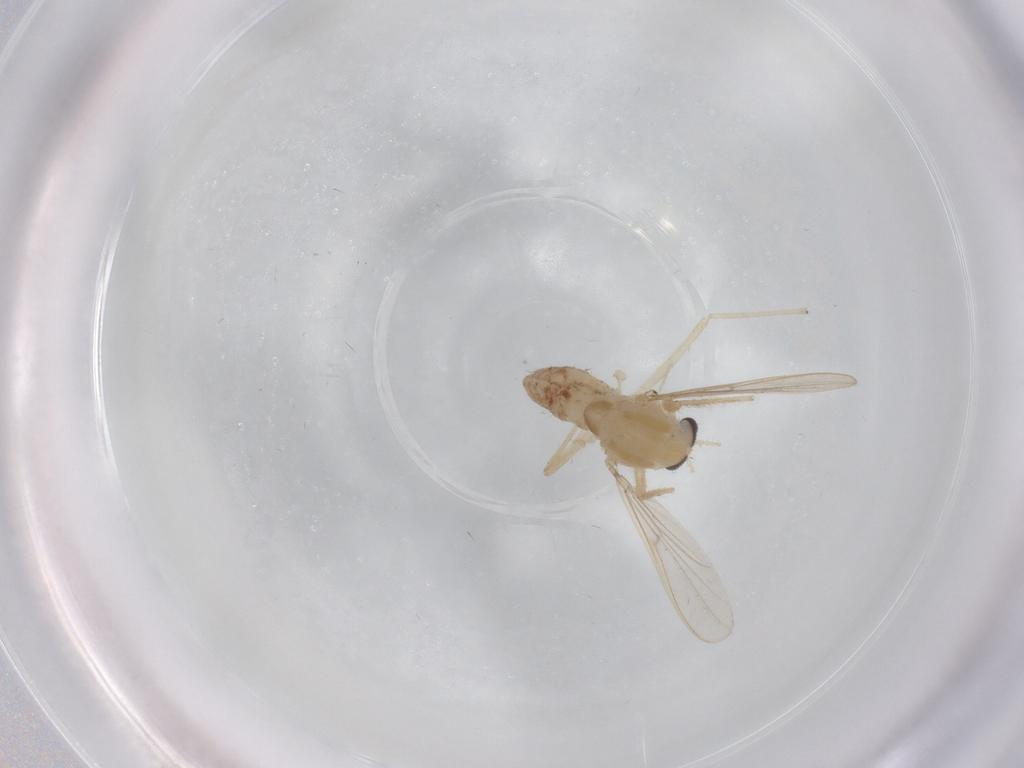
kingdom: Animalia
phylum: Arthropoda
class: Insecta
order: Diptera
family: Chironomidae
